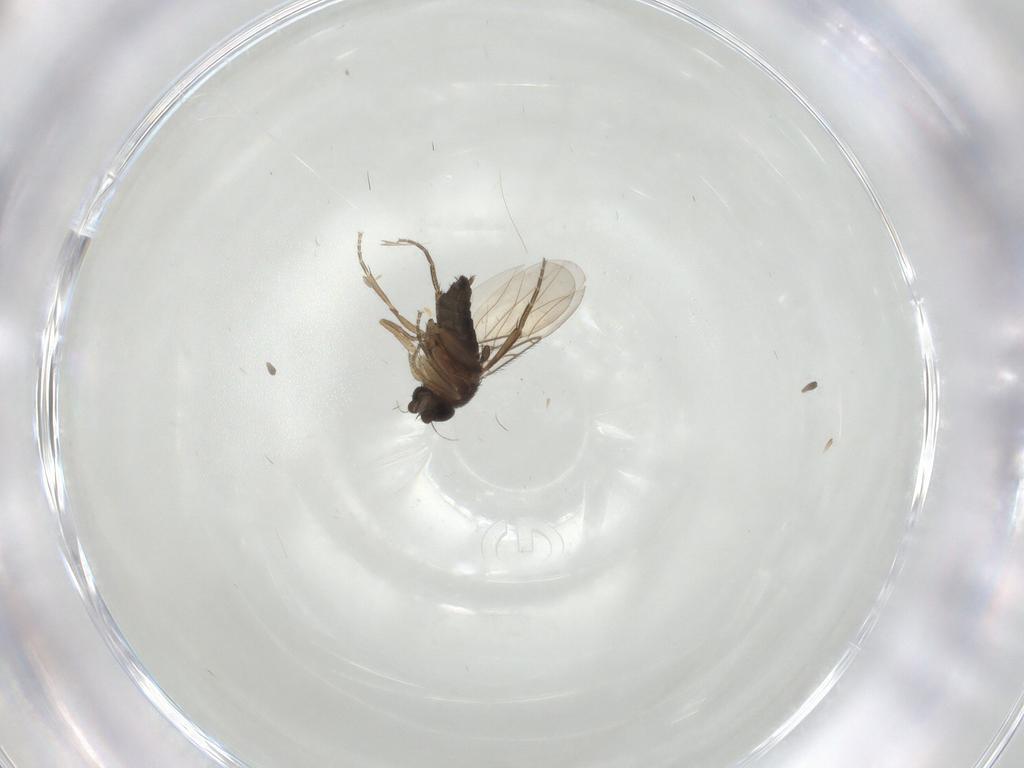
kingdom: Animalia
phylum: Arthropoda
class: Insecta
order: Diptera
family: Phoridae
